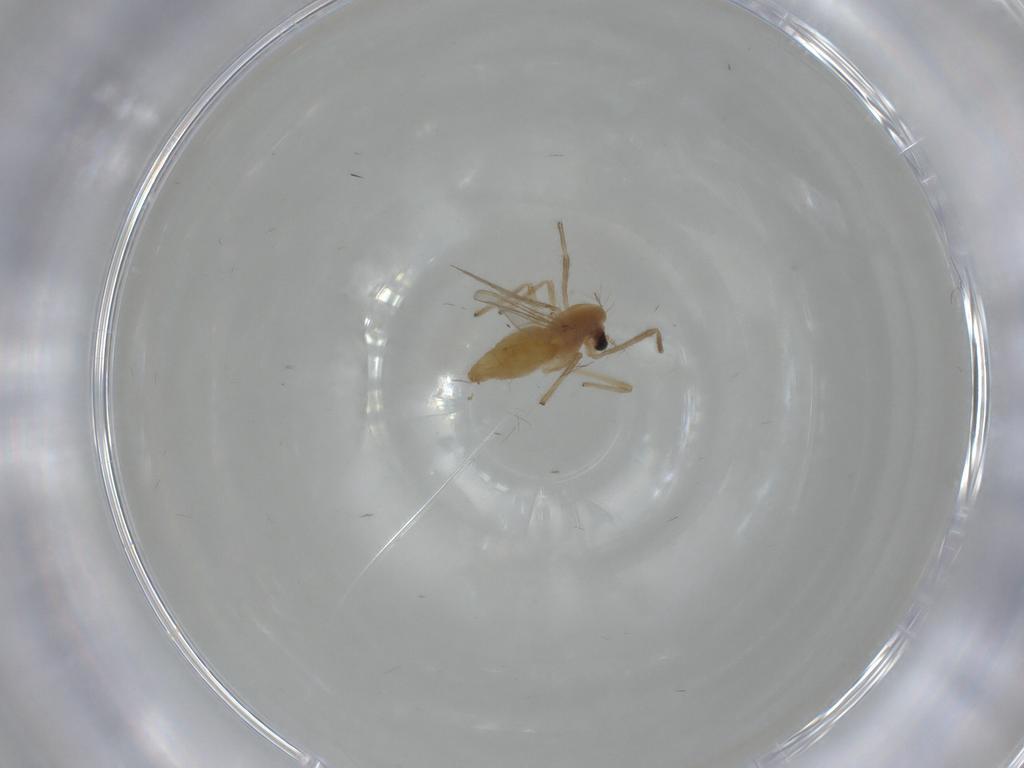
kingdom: Animalia
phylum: Arthropoda
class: Insecta
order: Diptera
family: Chironomidae
